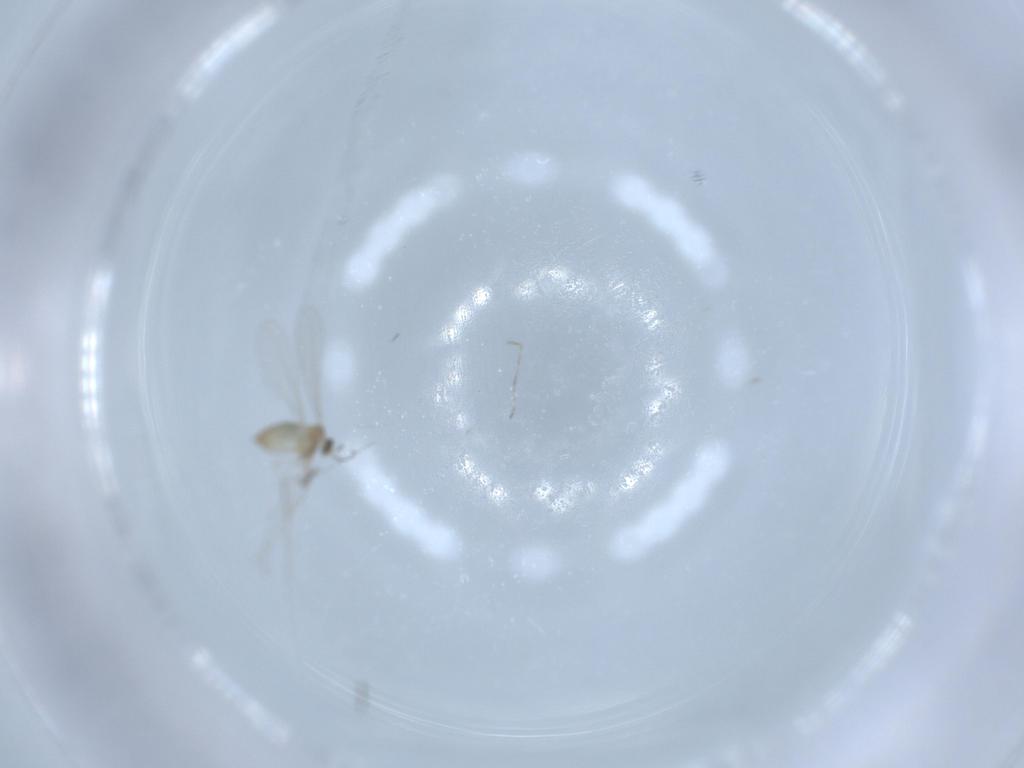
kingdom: Animalia
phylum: Arthropoda
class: Insecta
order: Diptera
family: Phoridae
